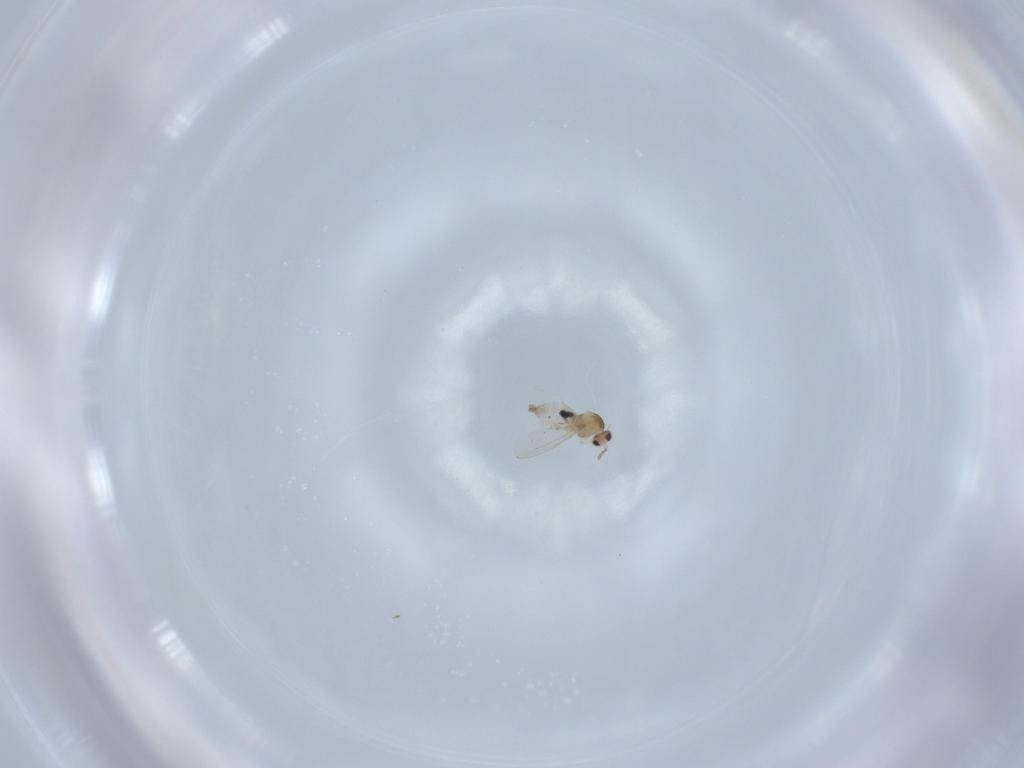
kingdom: Animalia
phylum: Arthropoda
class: Insecta
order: Diptera
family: Cecidomyiidae
